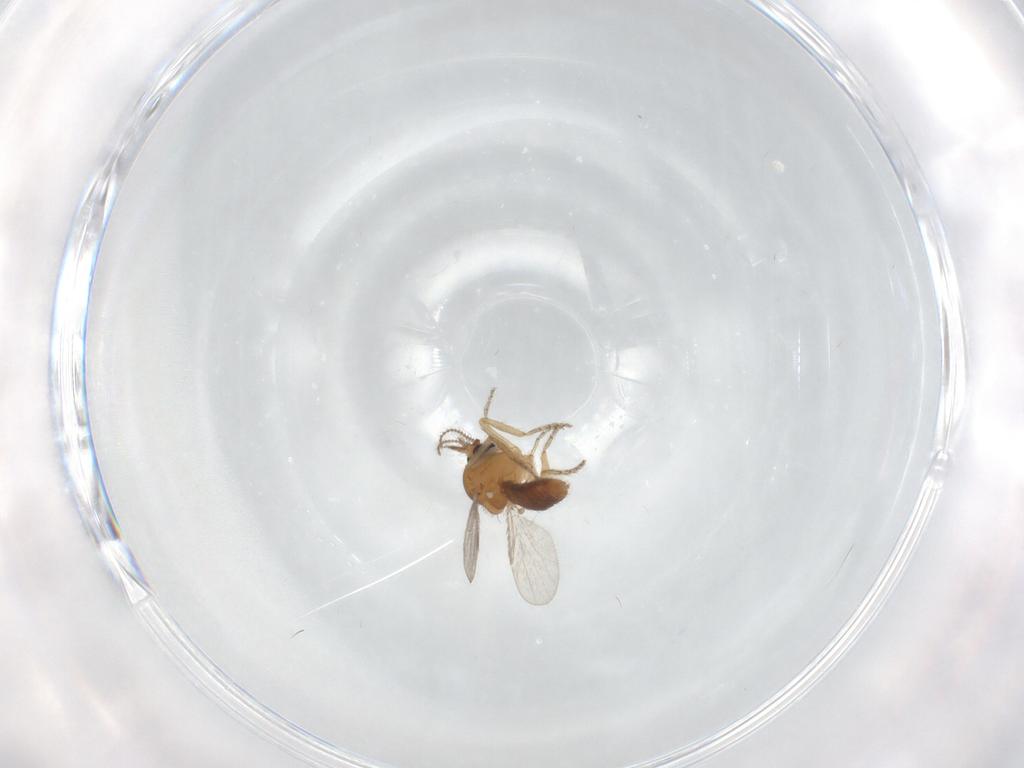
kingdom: Animalia
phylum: Arthropoda
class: Insecta
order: Diptera
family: Ceratopogonidae
